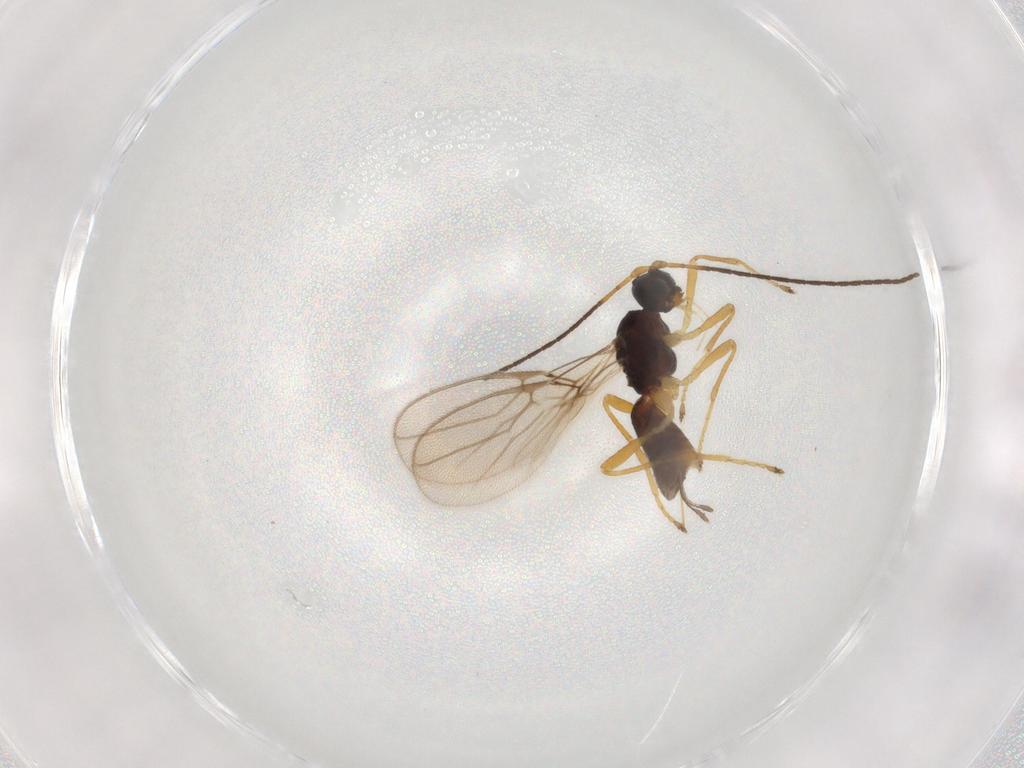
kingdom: Animalia
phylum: Arthropoda
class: Insecta
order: Hymenoptera
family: Braconidae
